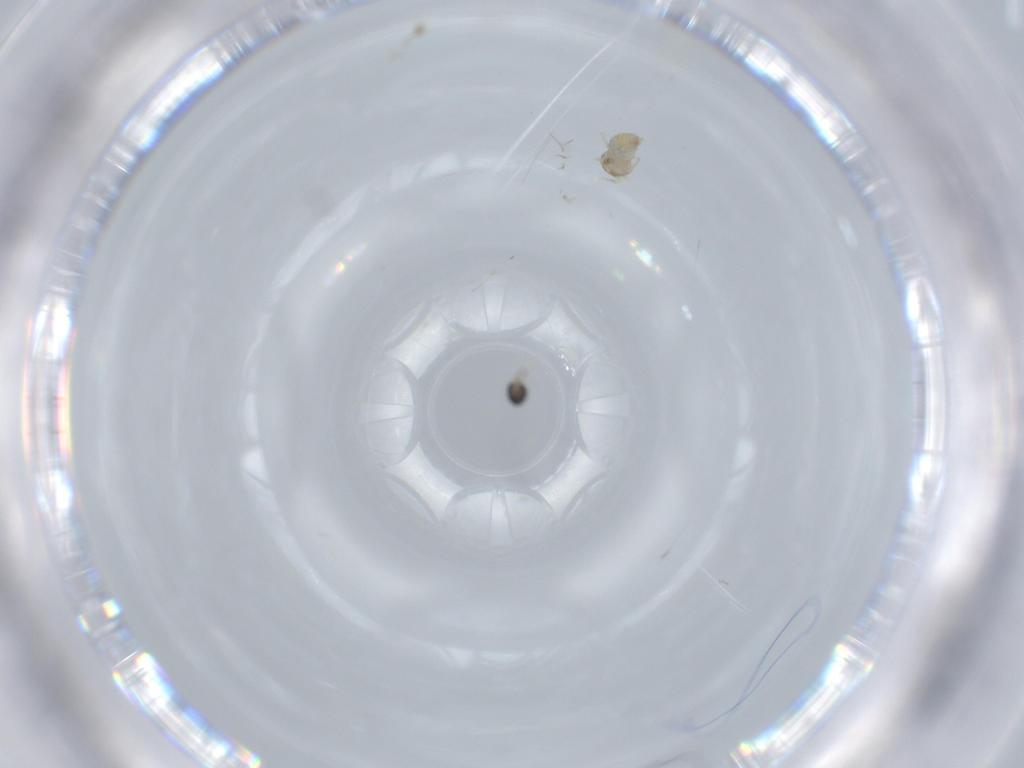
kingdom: Animalia
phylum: Arthropoda
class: Insecta
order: Diptera
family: Cecidomyiidae
